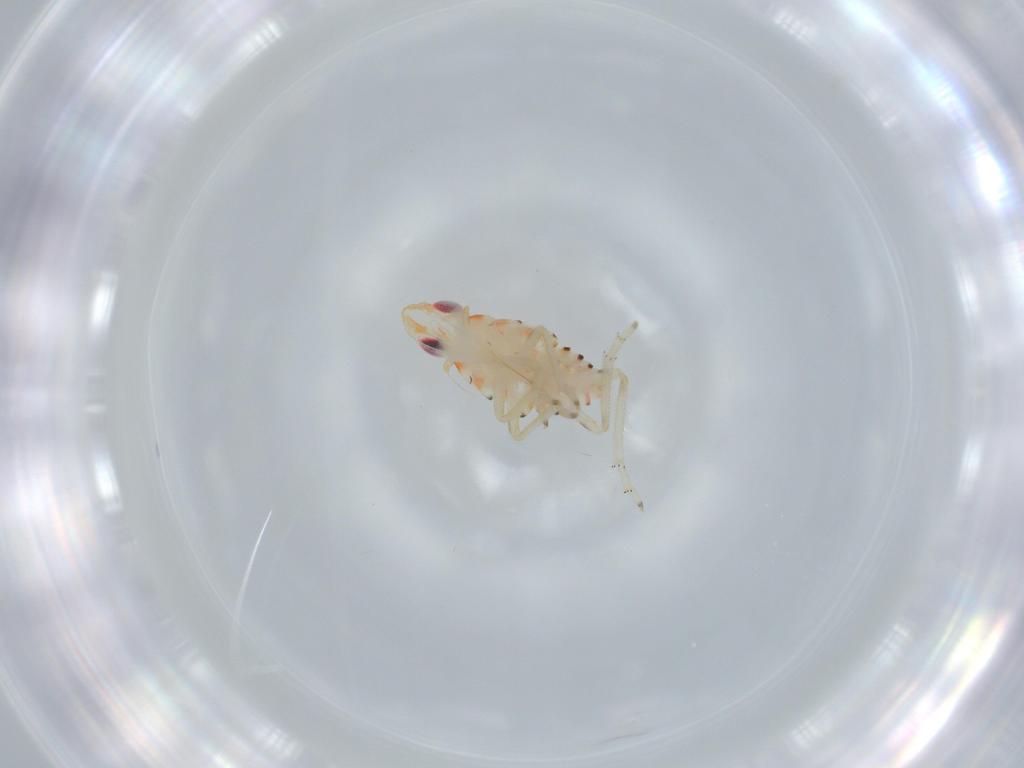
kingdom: Animalia
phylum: Arthropoda
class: Insecta
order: Hemiptera
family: Tropiduchidae
